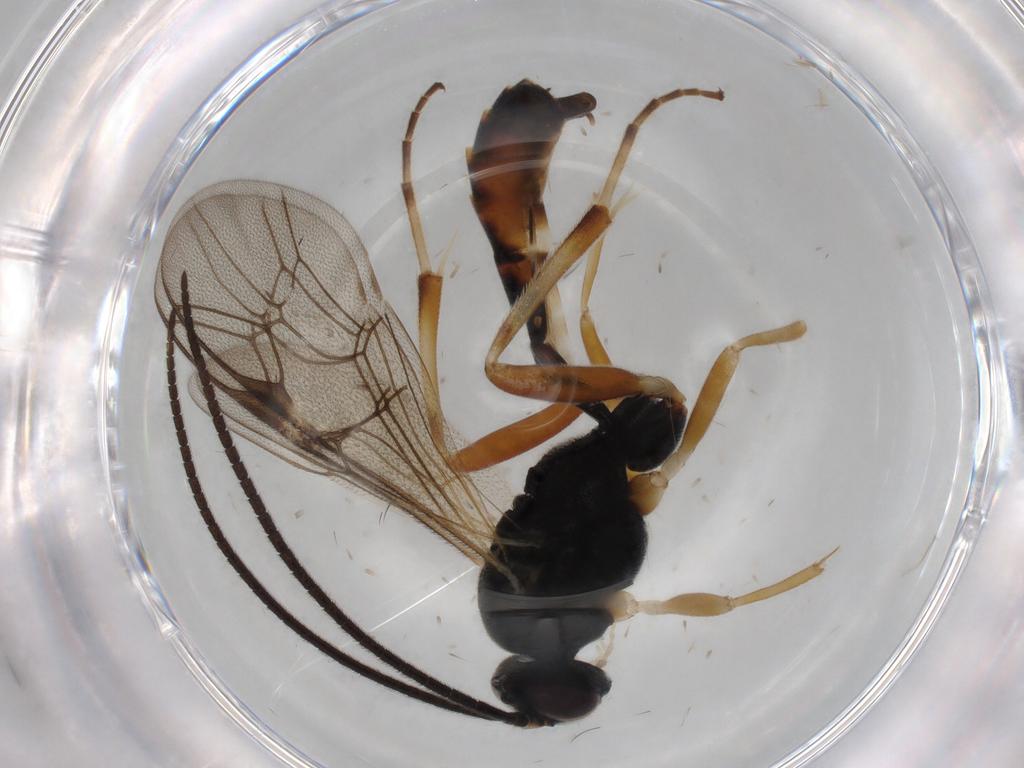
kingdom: Animalia
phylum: Arthropoda
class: Insecta
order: Hymenoptera
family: Ichneumonidae
